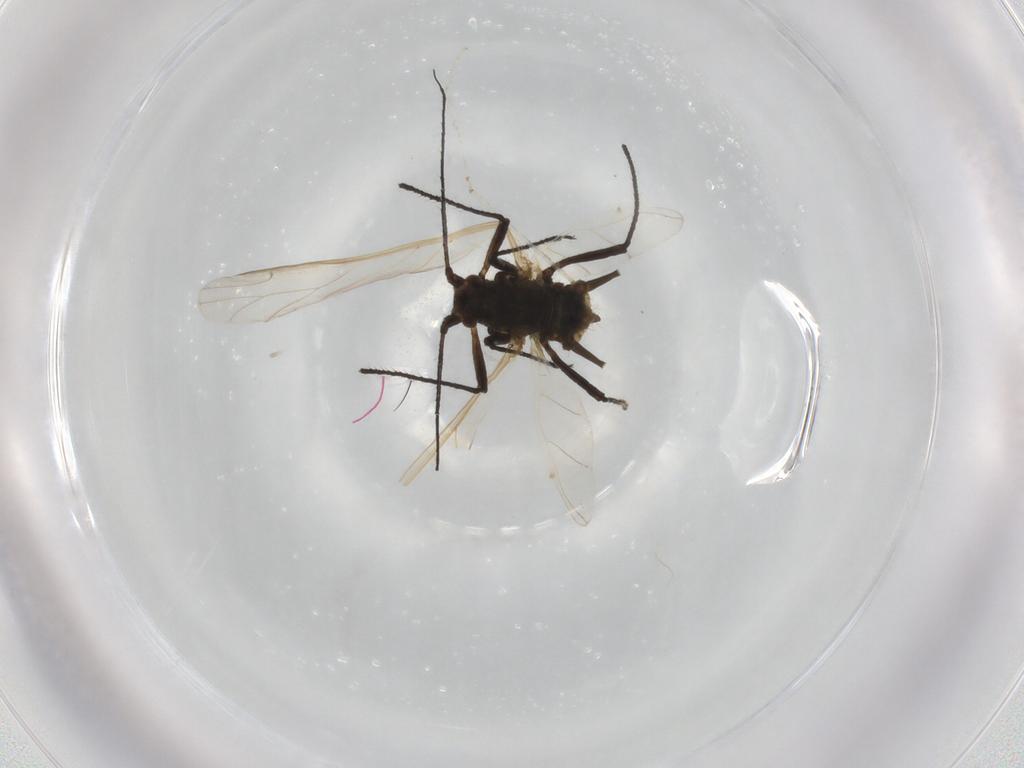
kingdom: Animalia
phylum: Arthropoda
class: Insecta
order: Hemiptera
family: Aphididae
